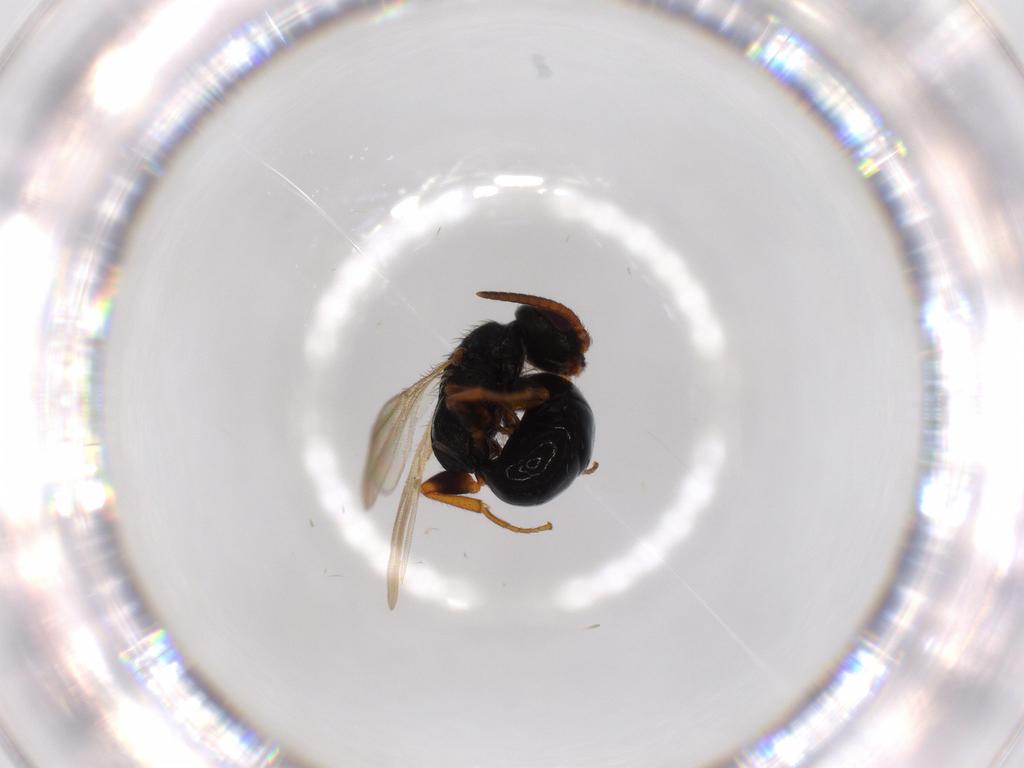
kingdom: Animalia
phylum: Arthropoda
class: Insecta
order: Hymenoptera
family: Bethylidae
